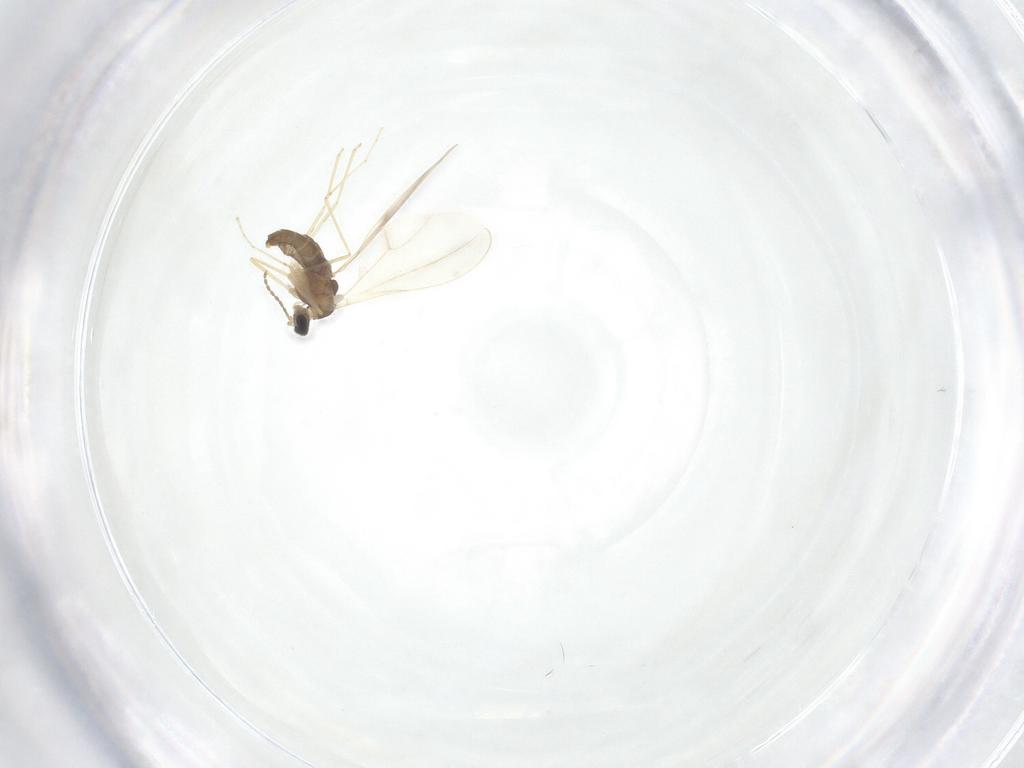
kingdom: Animalia
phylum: Arthropoda
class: Insecta
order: Diptera
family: Cecidomyiidae
